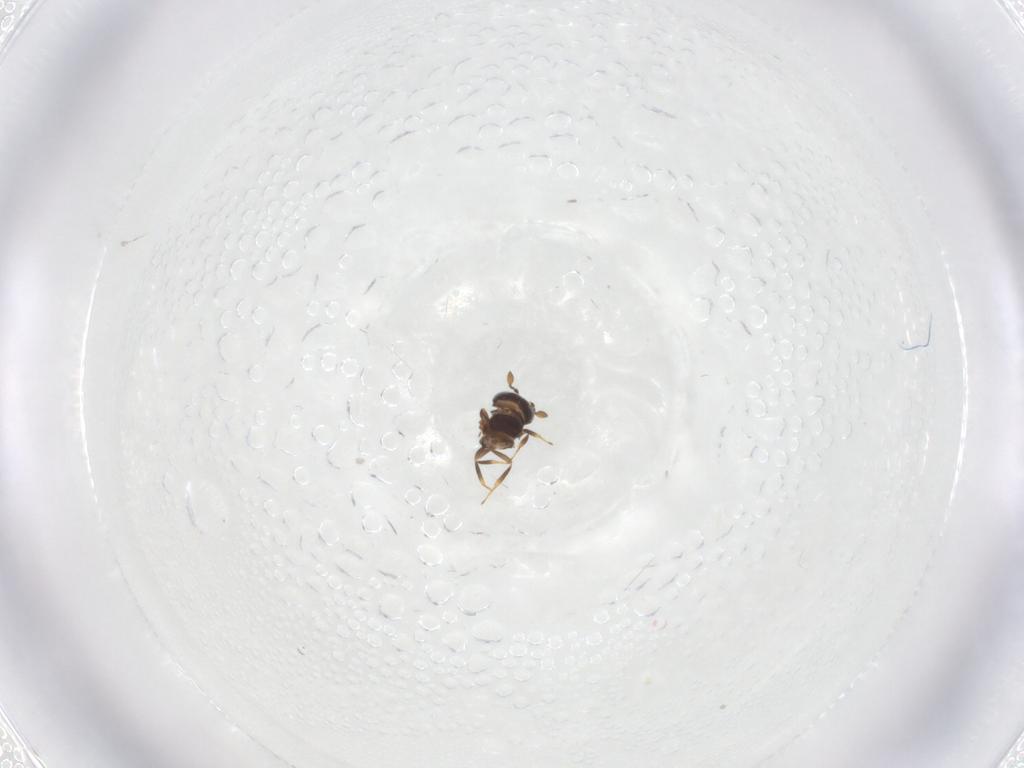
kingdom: Animalia
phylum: Arthropoda
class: Insecta
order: Hymenoptera
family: Scelionidae
